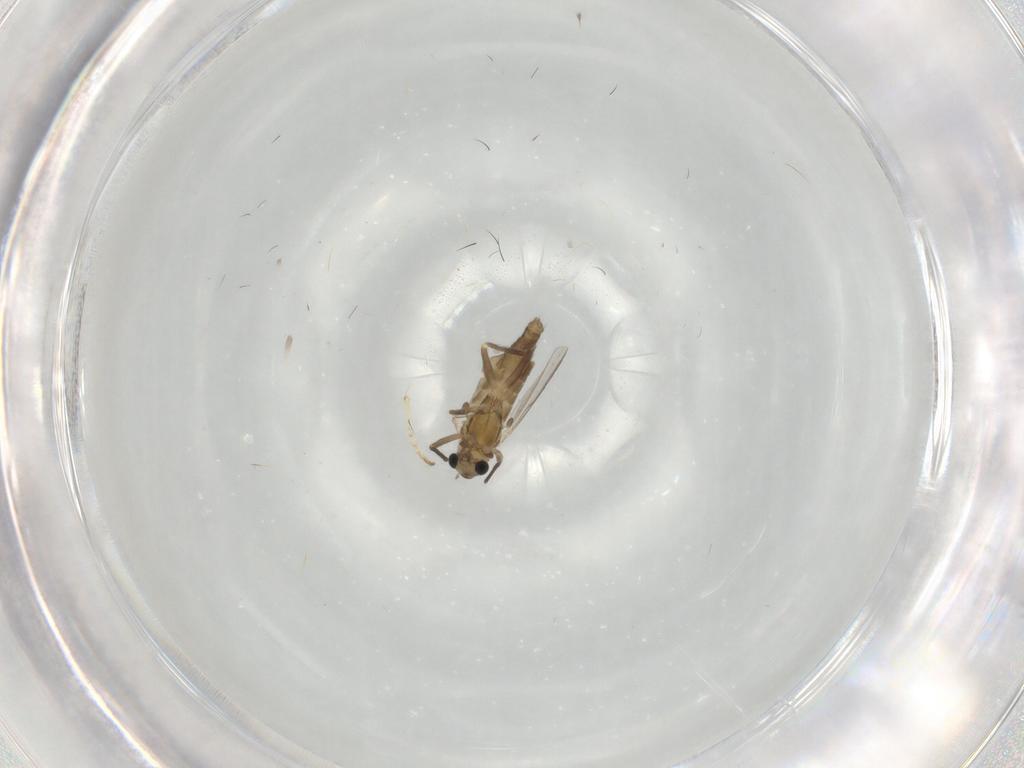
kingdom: Animalia
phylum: Arthropoda
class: Insecta
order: Diptera
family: Chironomidae
